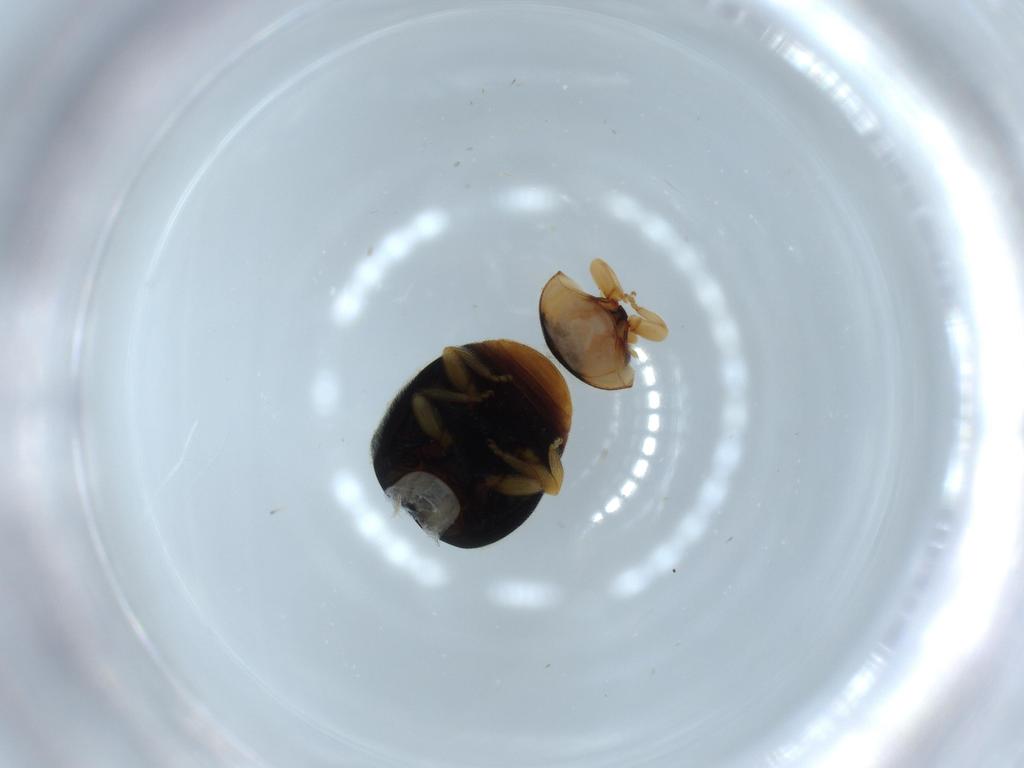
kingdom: Animalia
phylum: Arthropoda
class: Insecta
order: Coleoptera
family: Coccinellidae
